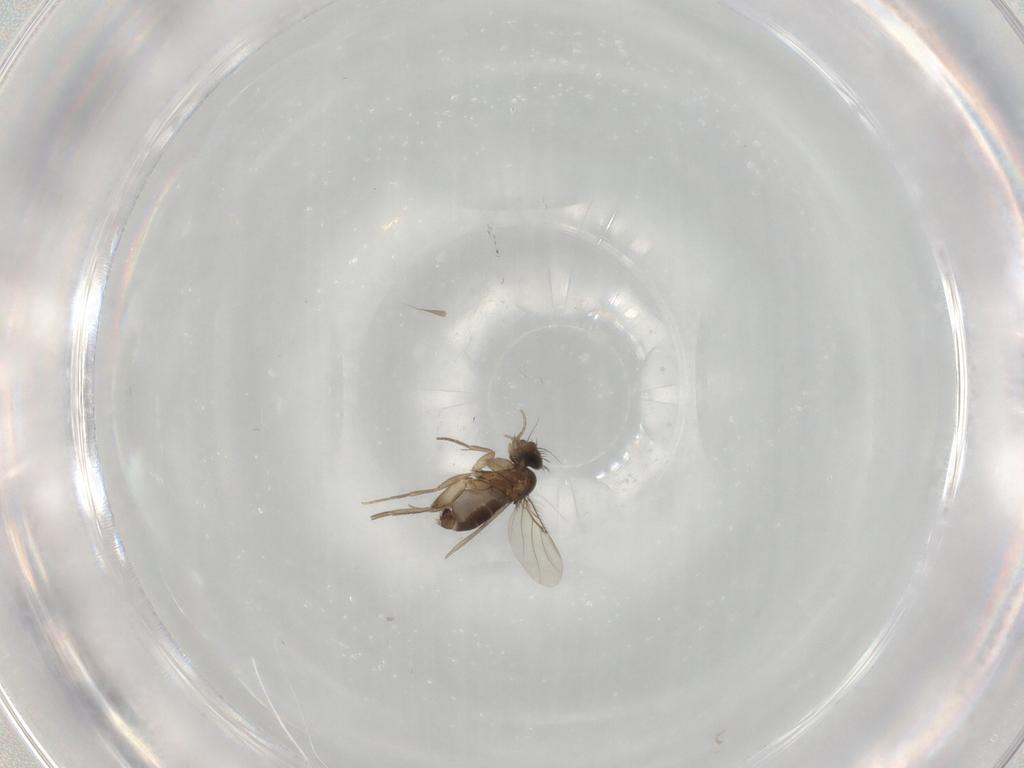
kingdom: Animalia
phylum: Arthropoda
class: Insecta
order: Diptera
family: Phoridae
